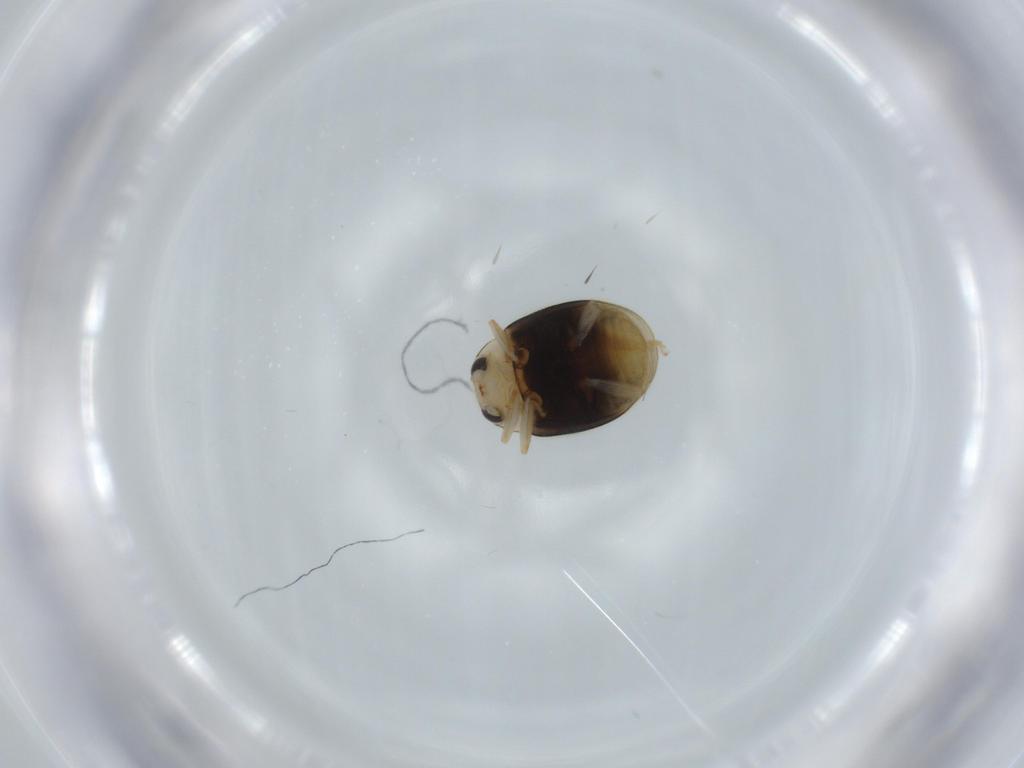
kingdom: Animalia
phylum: Arthropoda
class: Insecta
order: Coleoptera
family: Coccinellidae
